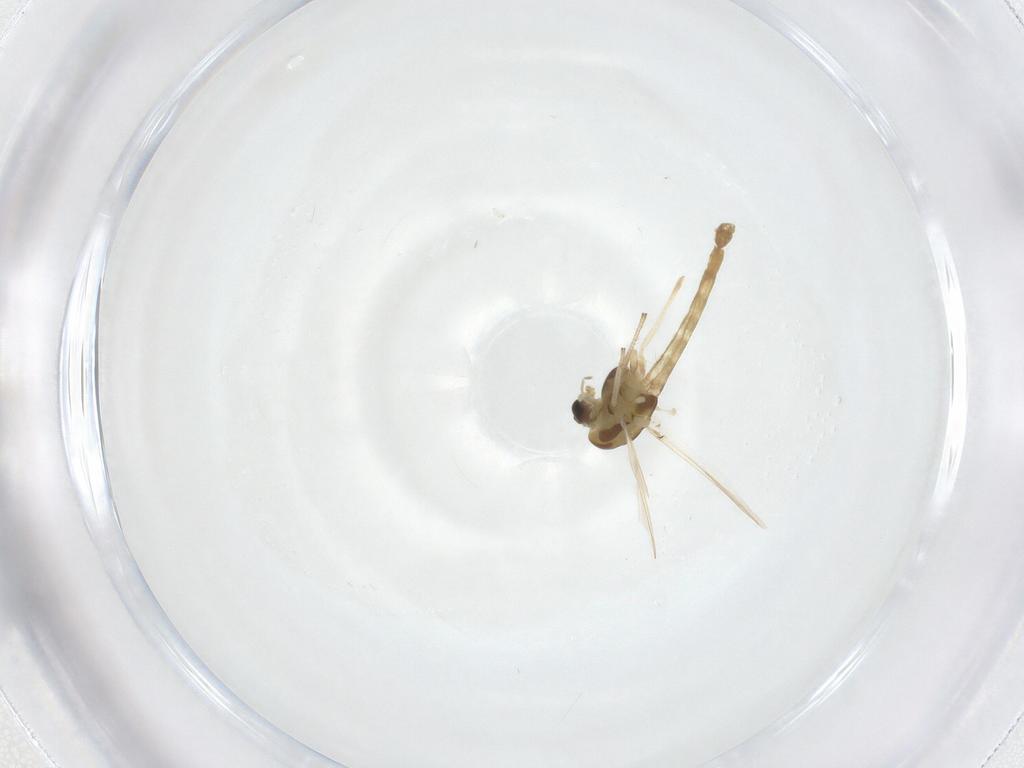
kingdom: Animalia
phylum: Arthropoda
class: Insecta
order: Diptera
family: Chironomidae
